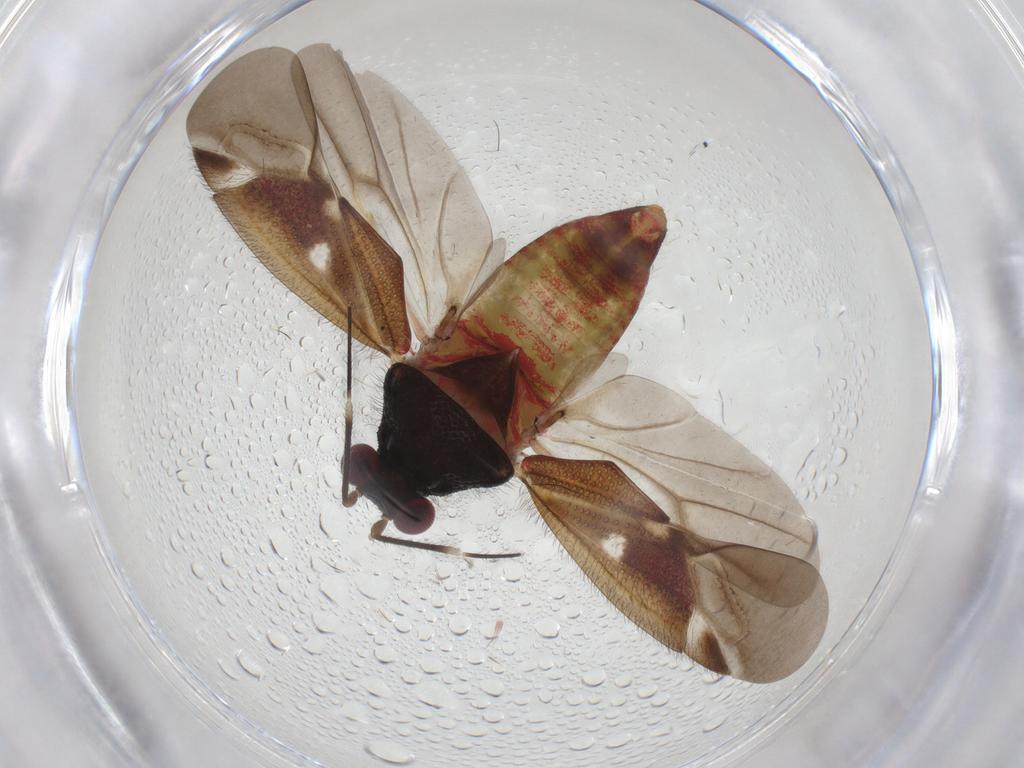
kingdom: Animalia
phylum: Arthropoda
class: Insecta
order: Hemiptera
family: Miridae
